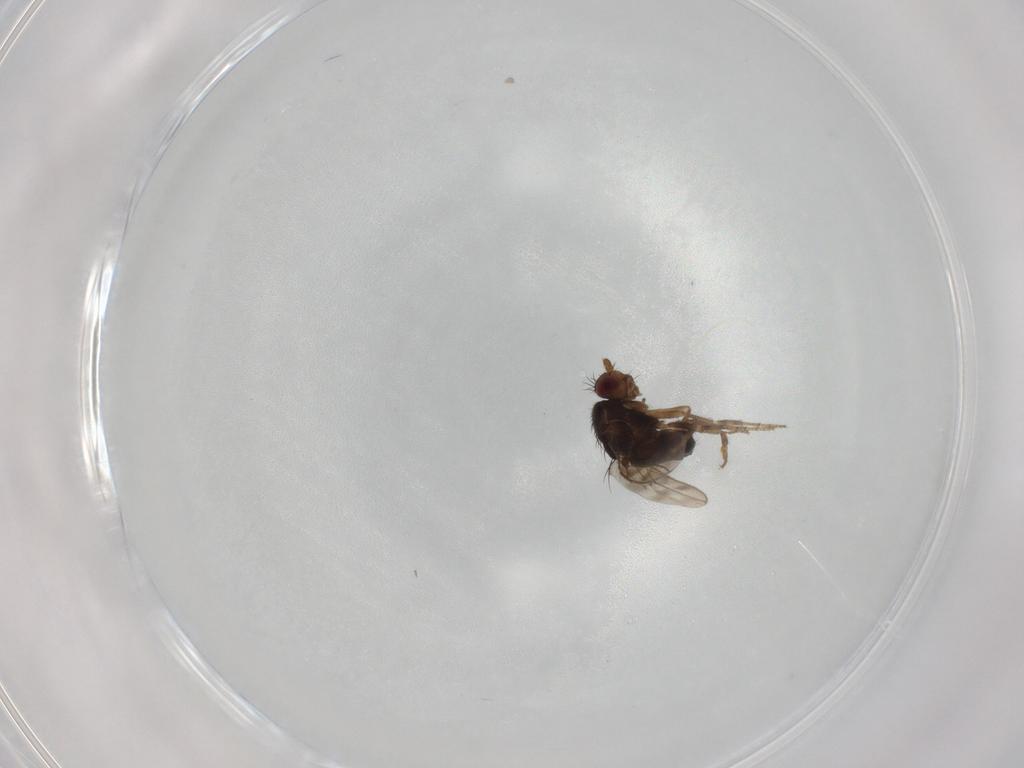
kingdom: Animalia
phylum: Arthropoda
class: Insecta
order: Diptera
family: Sphaeroceridae
